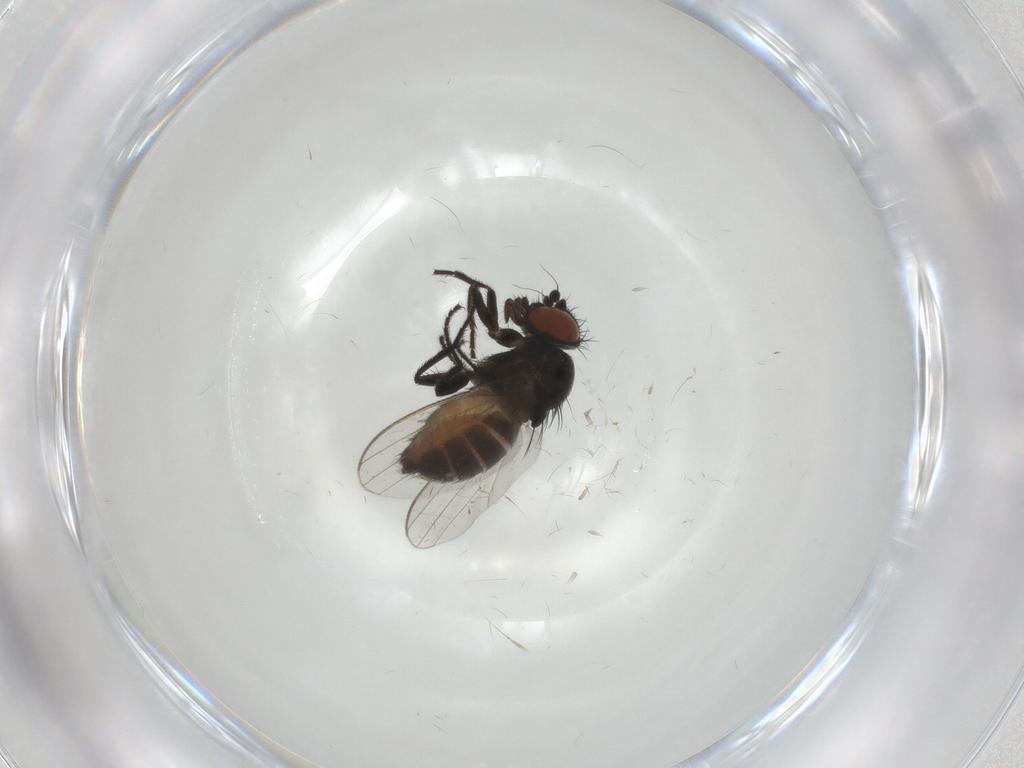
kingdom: Animalia
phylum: Arthropoda
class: Insecta
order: Diptera
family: Milichiidae
